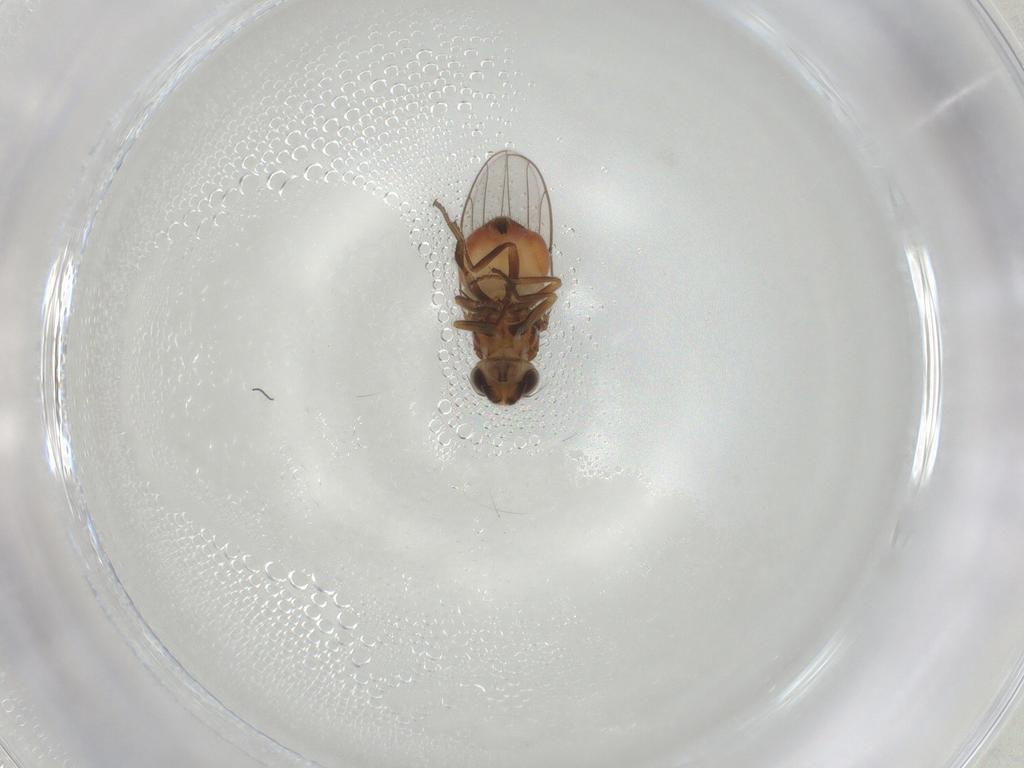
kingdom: Animalia
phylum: Arthropoda
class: Insecta
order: Diptera
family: Chloropidae
